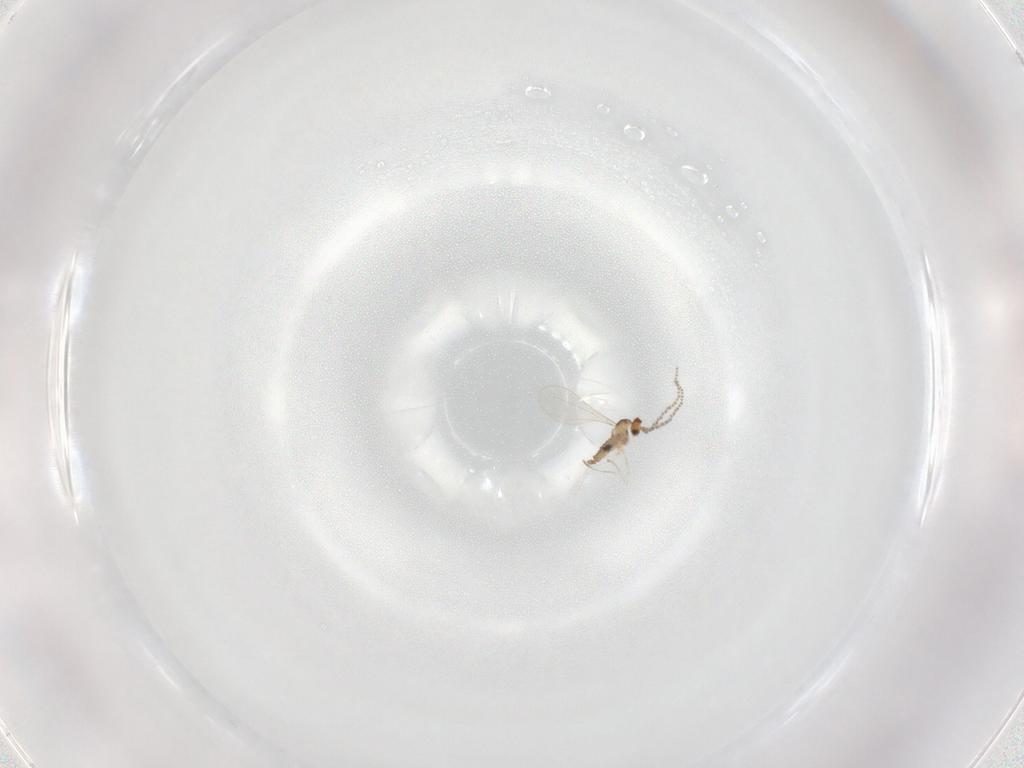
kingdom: Animalia
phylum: Arthropoda
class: Insecta
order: Diptera
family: Cecidomyiidae
